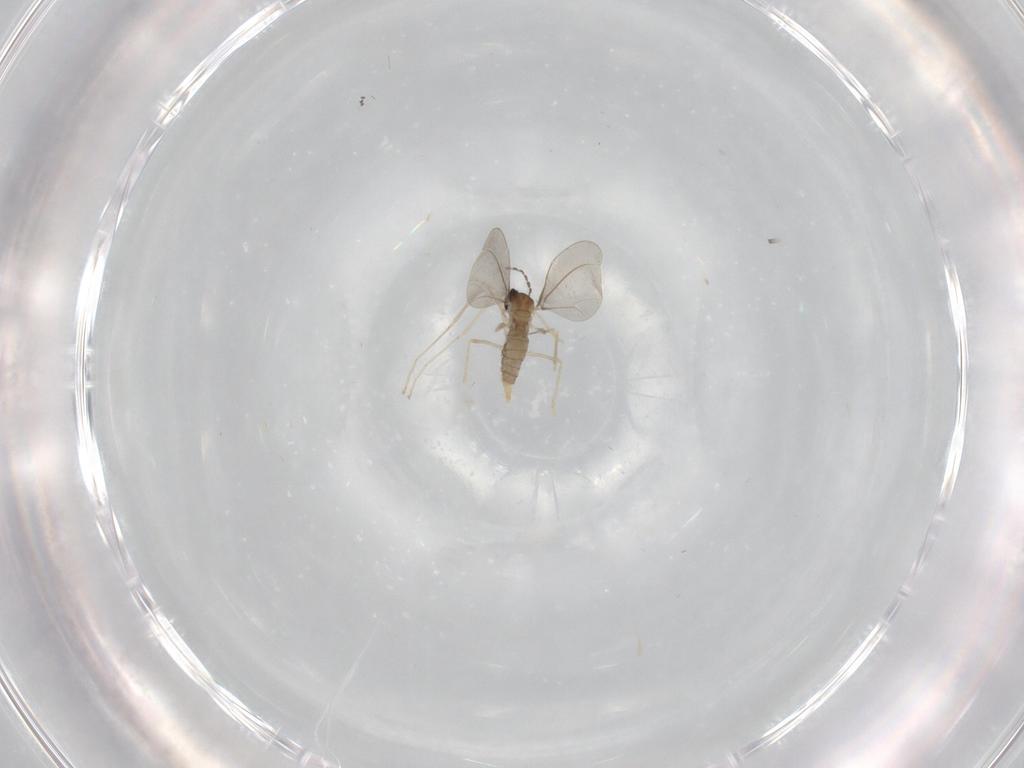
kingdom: Animalia
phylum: Arthropoda
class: Insecta
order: Diptera
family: Cecidomyiidae
